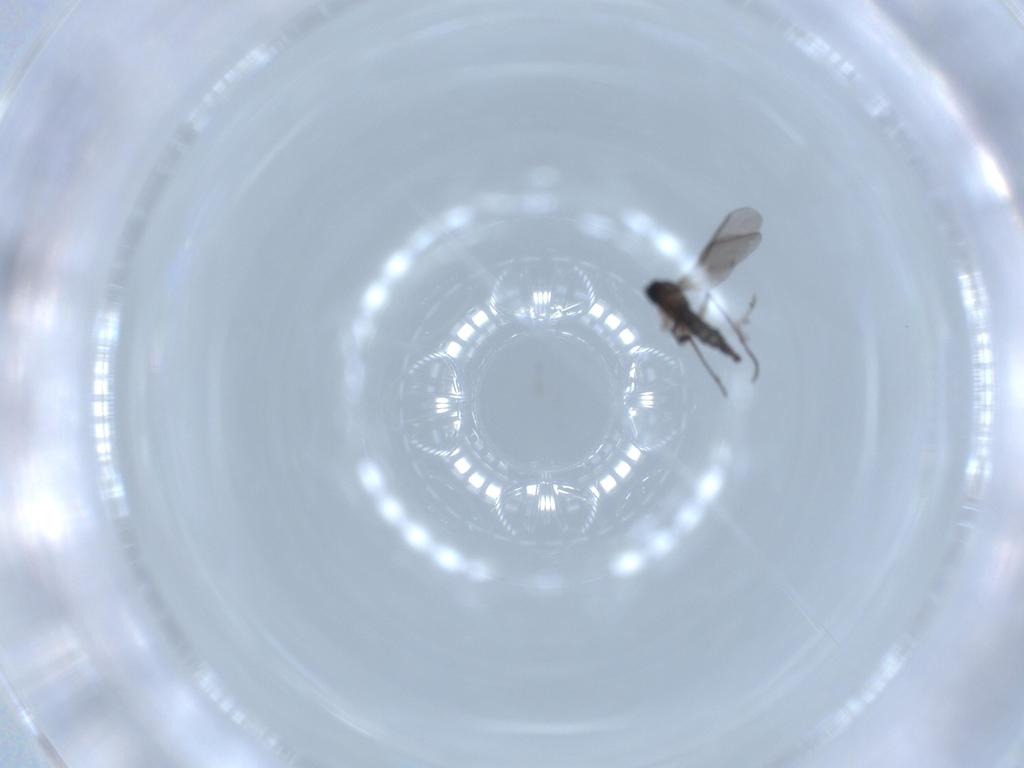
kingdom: Animalia
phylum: Arthropoda
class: Insecta
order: Diptera
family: Sciaridae
